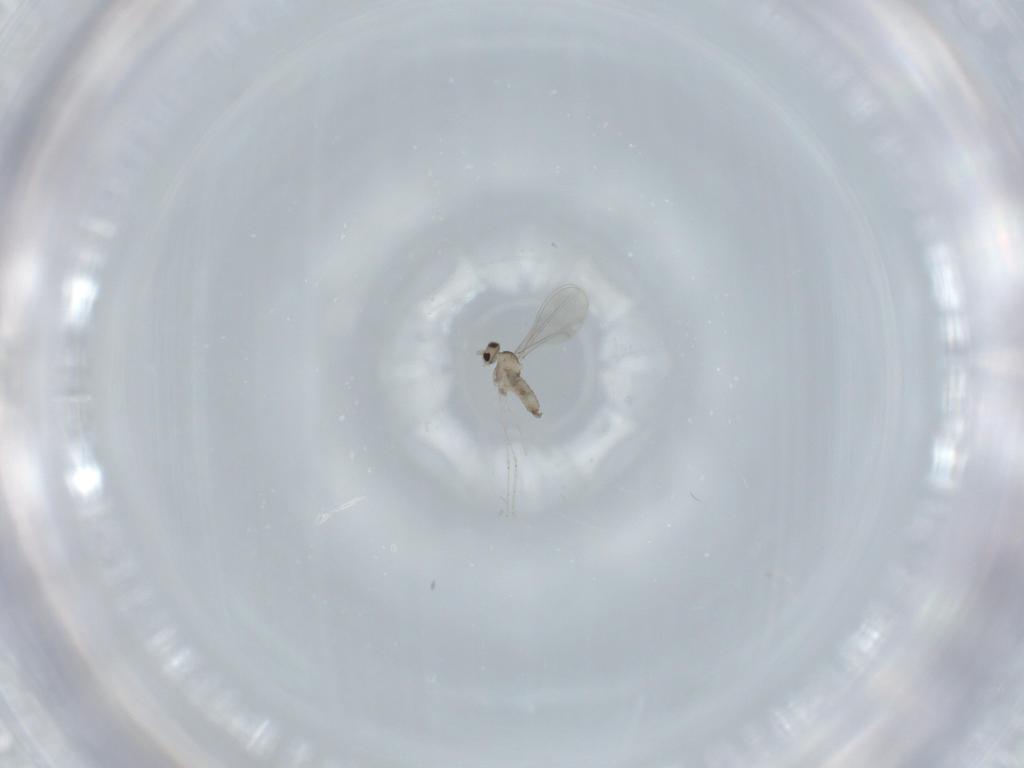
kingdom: Animalia
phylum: Arthropoda
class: Insecta
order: Diptera
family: Cecidomyiidae
